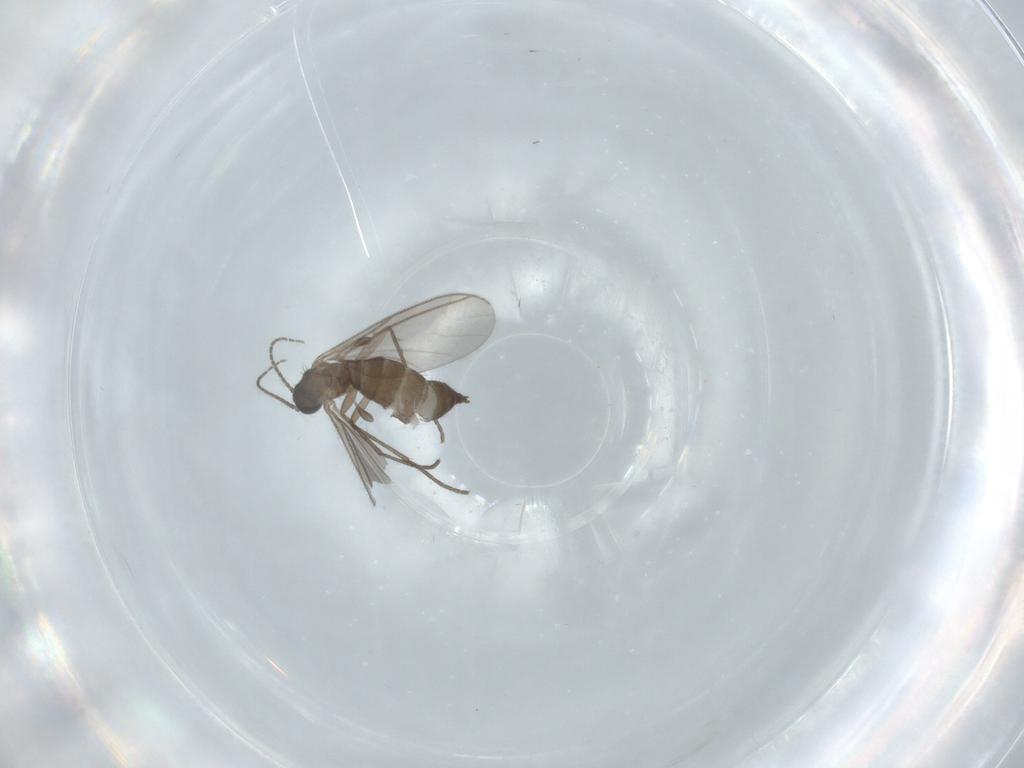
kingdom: Animalia
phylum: Arthropoda
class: Insecta
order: Diptera
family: Sciaridae
